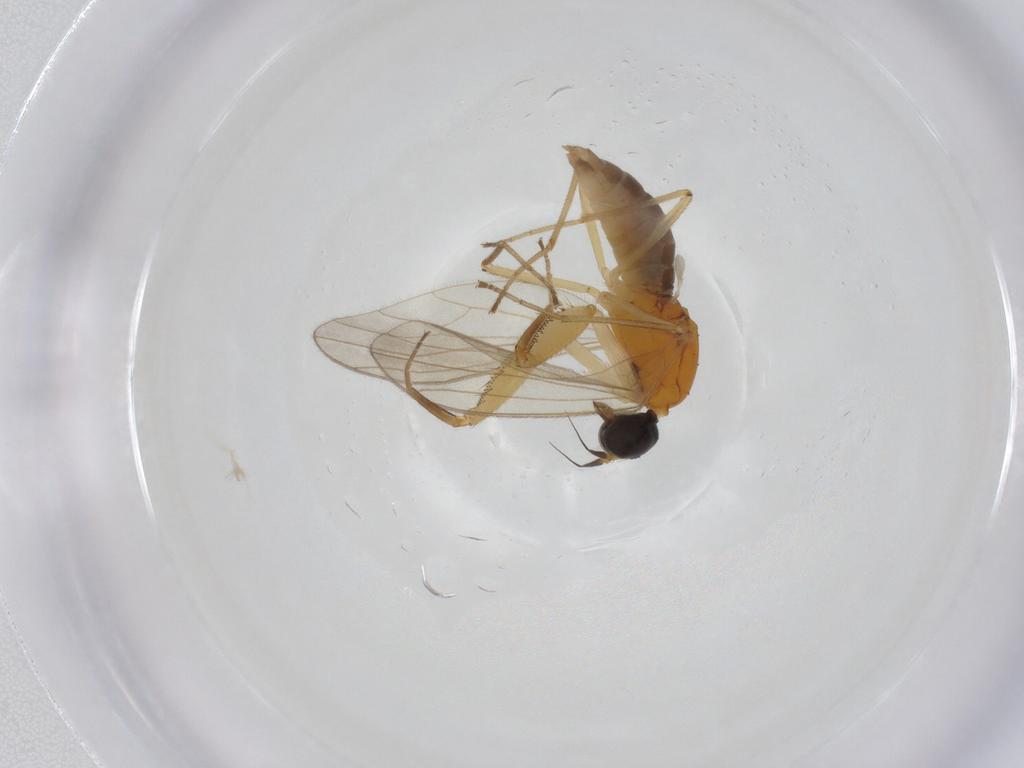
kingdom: Animalia
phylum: Arthropoda
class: Insecta
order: Diptera
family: Empididae
